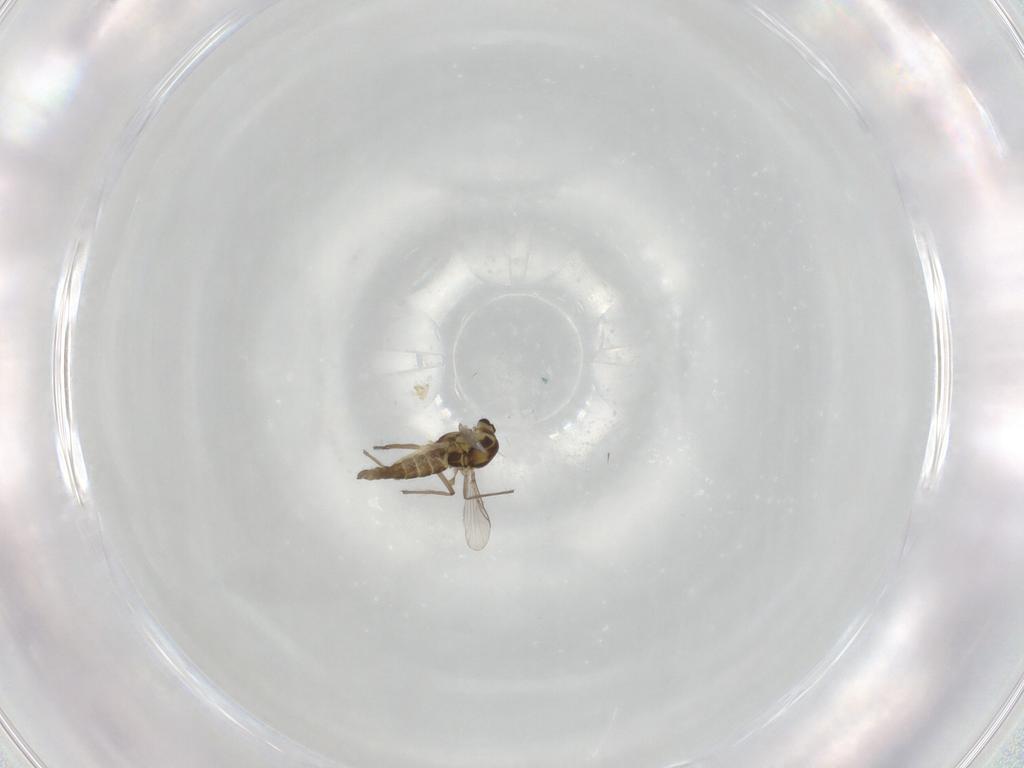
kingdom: Animalia
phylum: Arthropoda
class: Insecta
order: Diptera
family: Chironomidae
